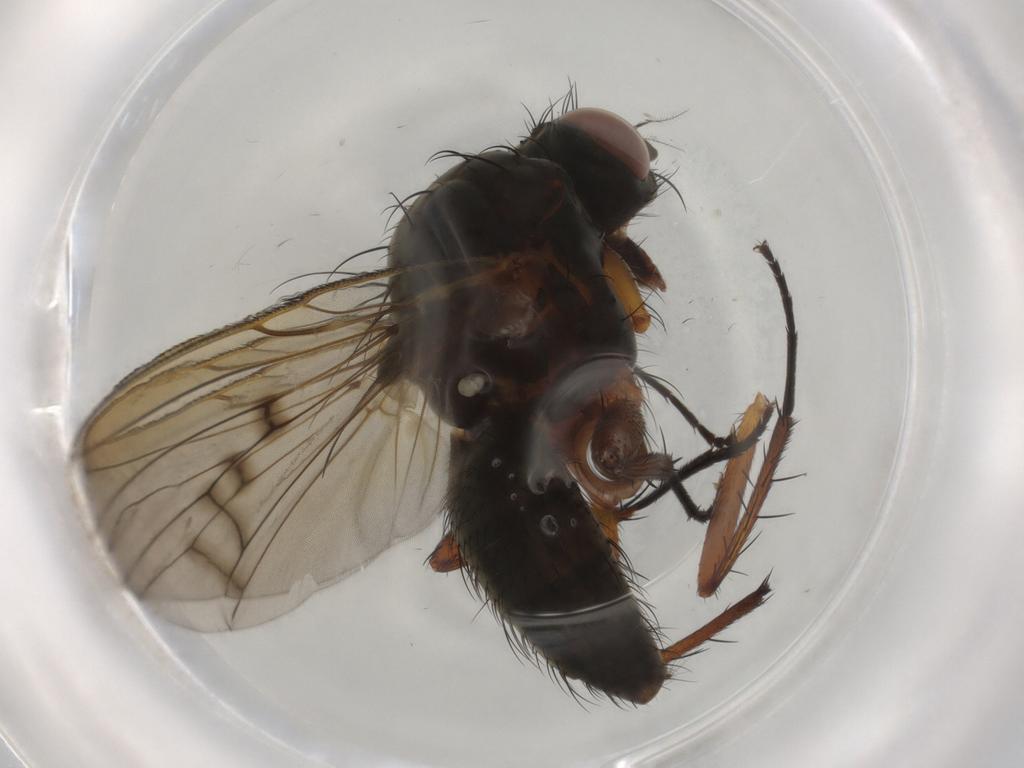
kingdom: Animalia
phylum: Arthropoda
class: Insecta
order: Diptera
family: Anthomyiidae
